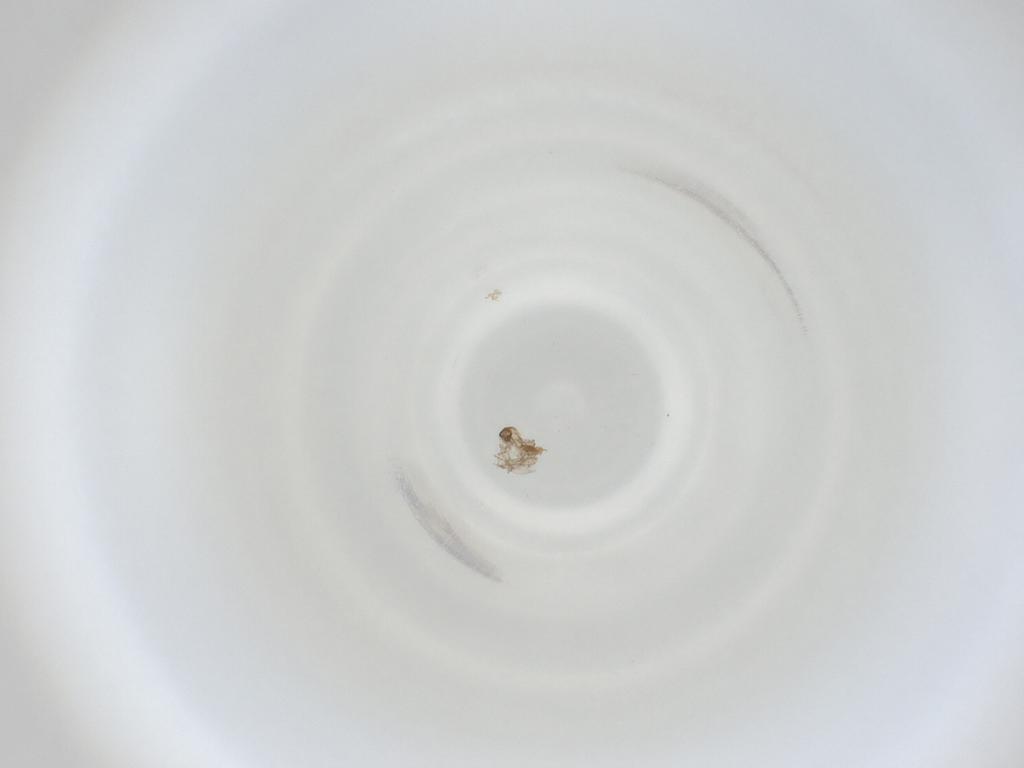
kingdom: Animalia
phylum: Arthropoda
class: Insecta
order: Diptera
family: Cecidomyiidae
